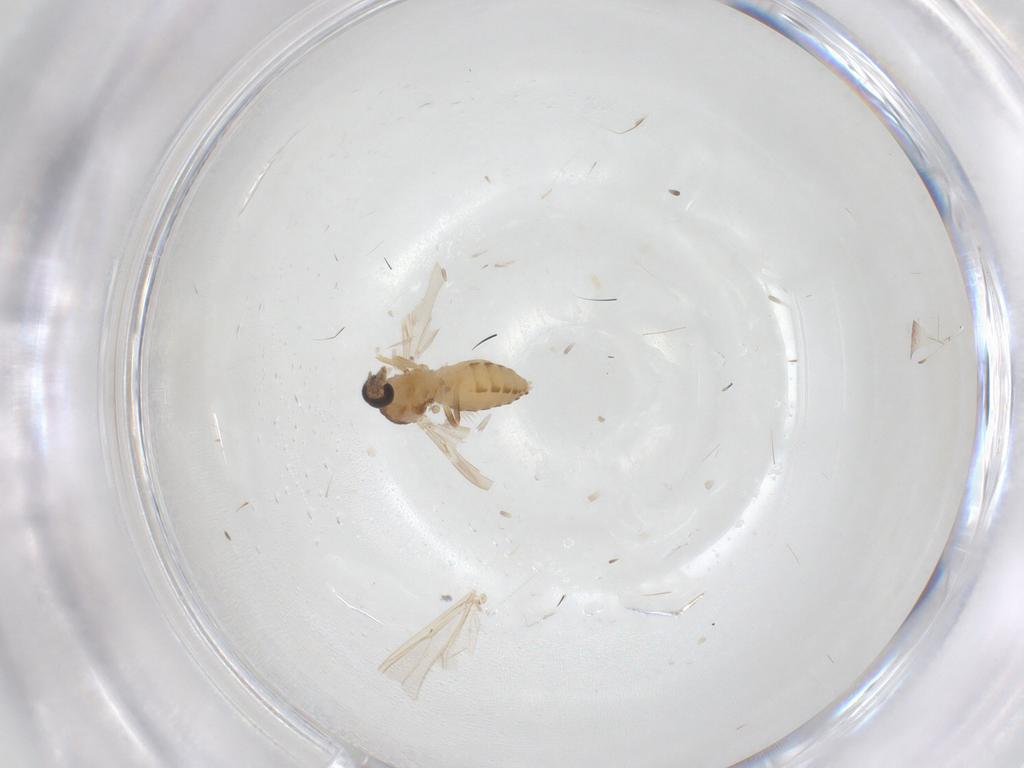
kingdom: Animalia
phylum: Arthropoda
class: Insecta
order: Diptera
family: Ceratopogonidae
